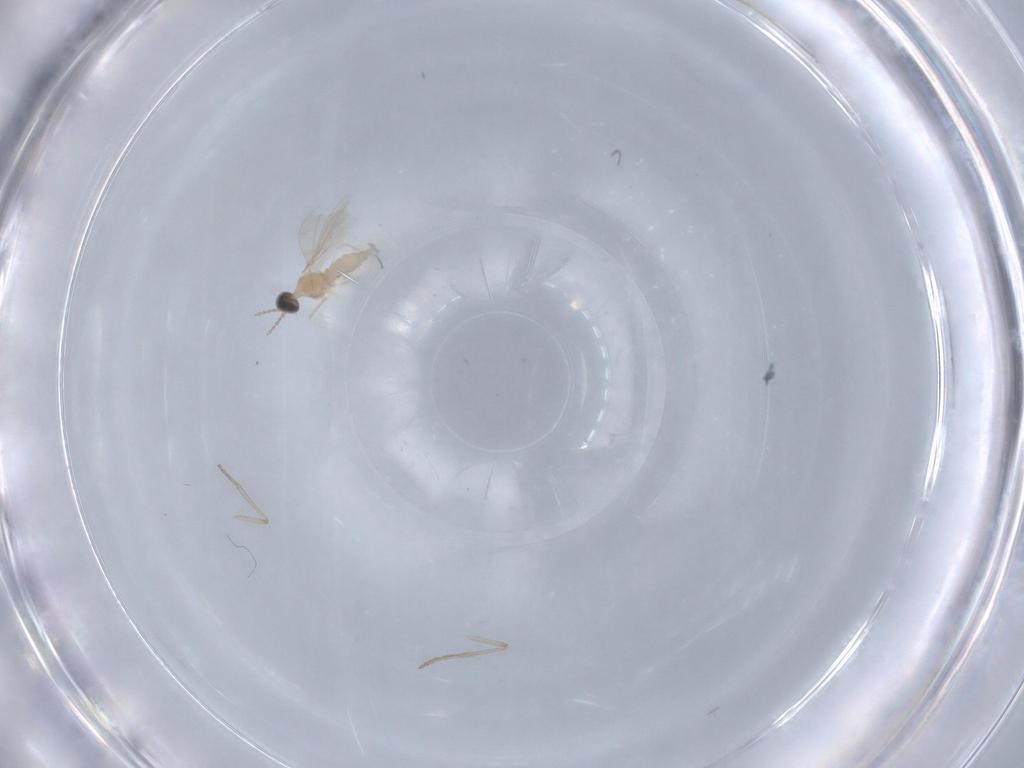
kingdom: Animalia
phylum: Arthropoda
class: Insecta
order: Diptera
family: Cecidomyiidae
